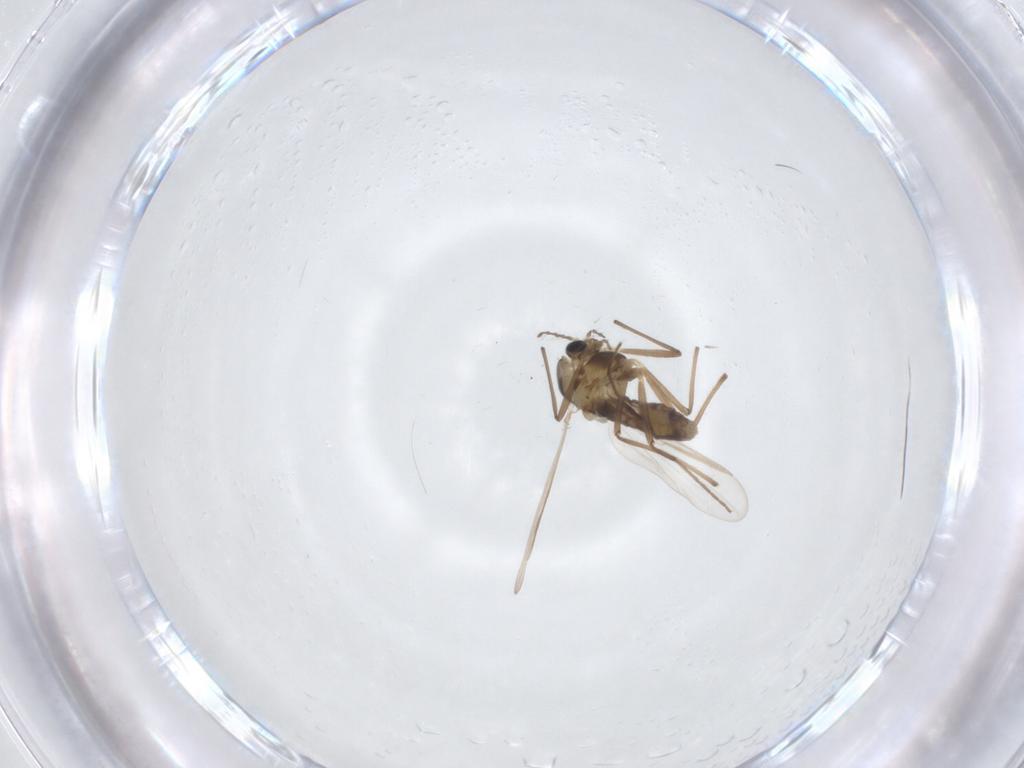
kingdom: Animalia
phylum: Arthropoda
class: Insecta
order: Diptera
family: Chironomidae
